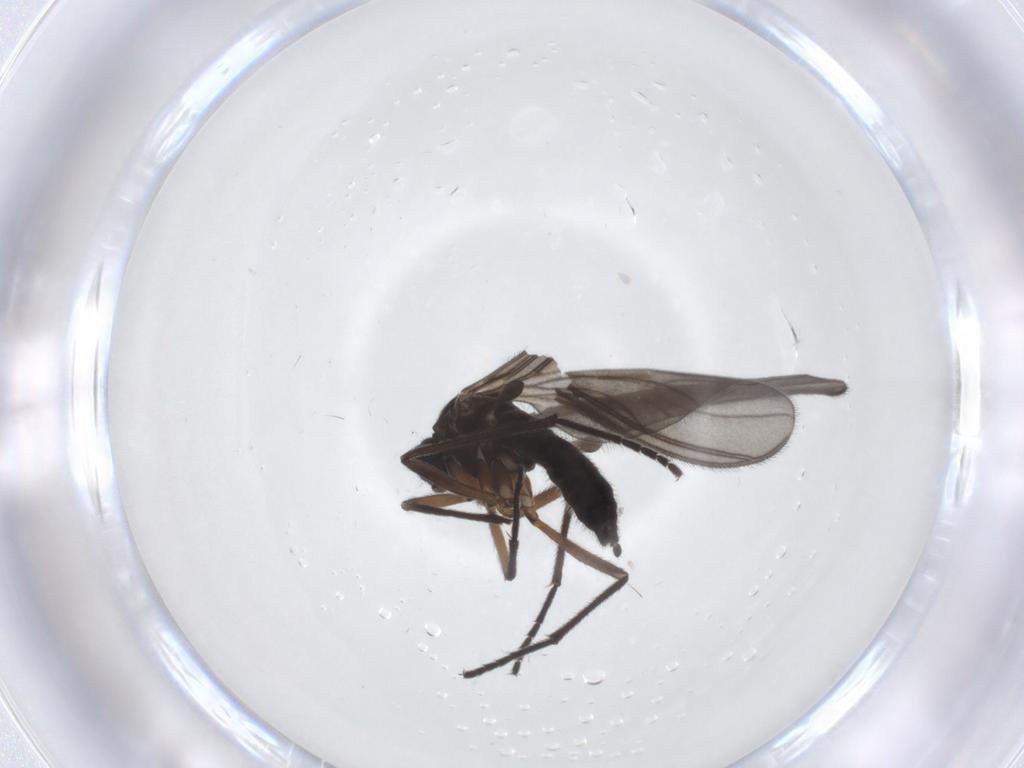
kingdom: Animalia
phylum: Arthropoda
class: Insecta
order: Diptera
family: Sciaridae
